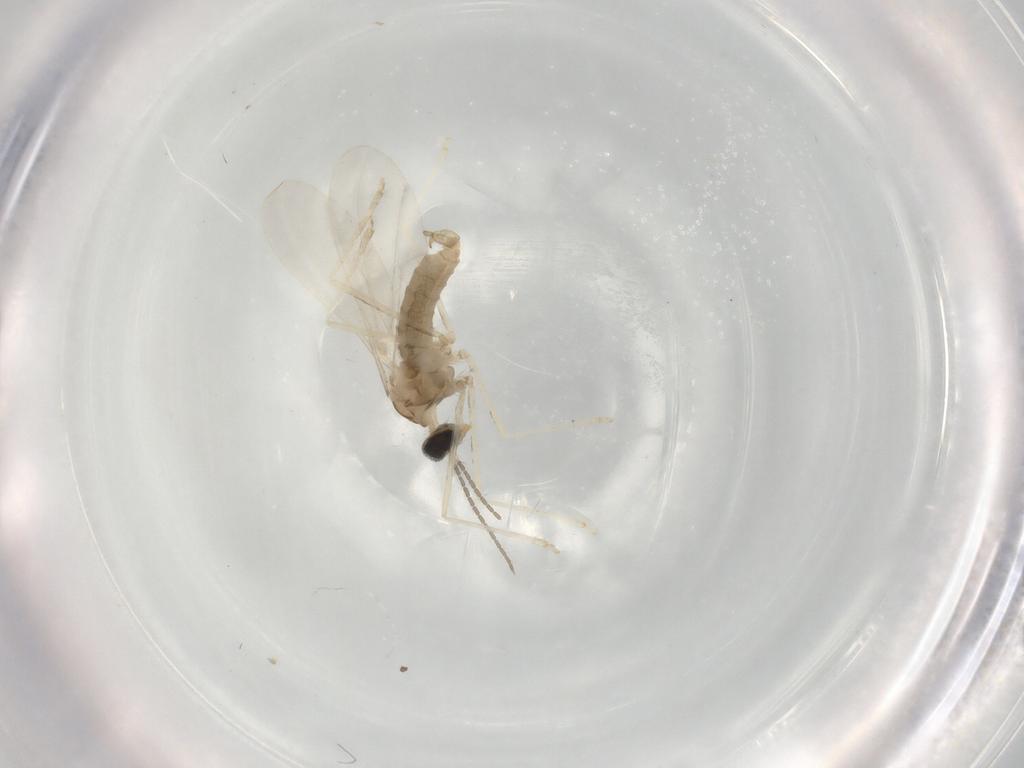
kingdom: Animalia
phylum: Arthropoda
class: Insecta
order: Diptera
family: Cecidomyiidae
